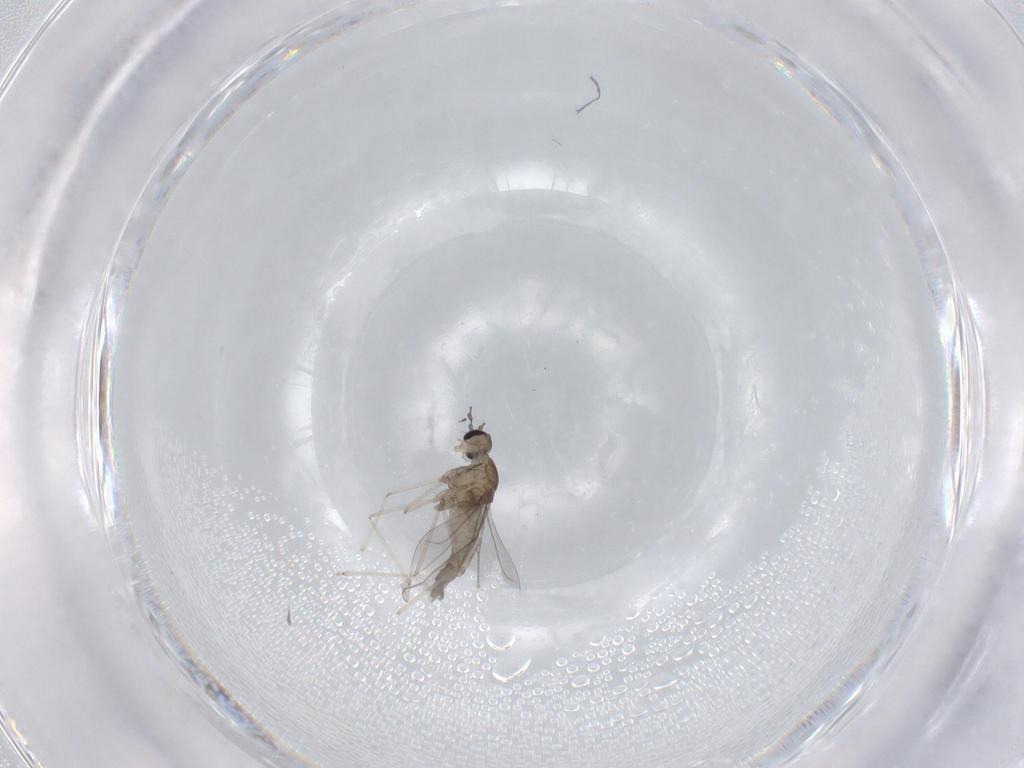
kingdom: Animalia
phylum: Arthropoda
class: Insecta
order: Diptera
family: Cecidomyiidae
